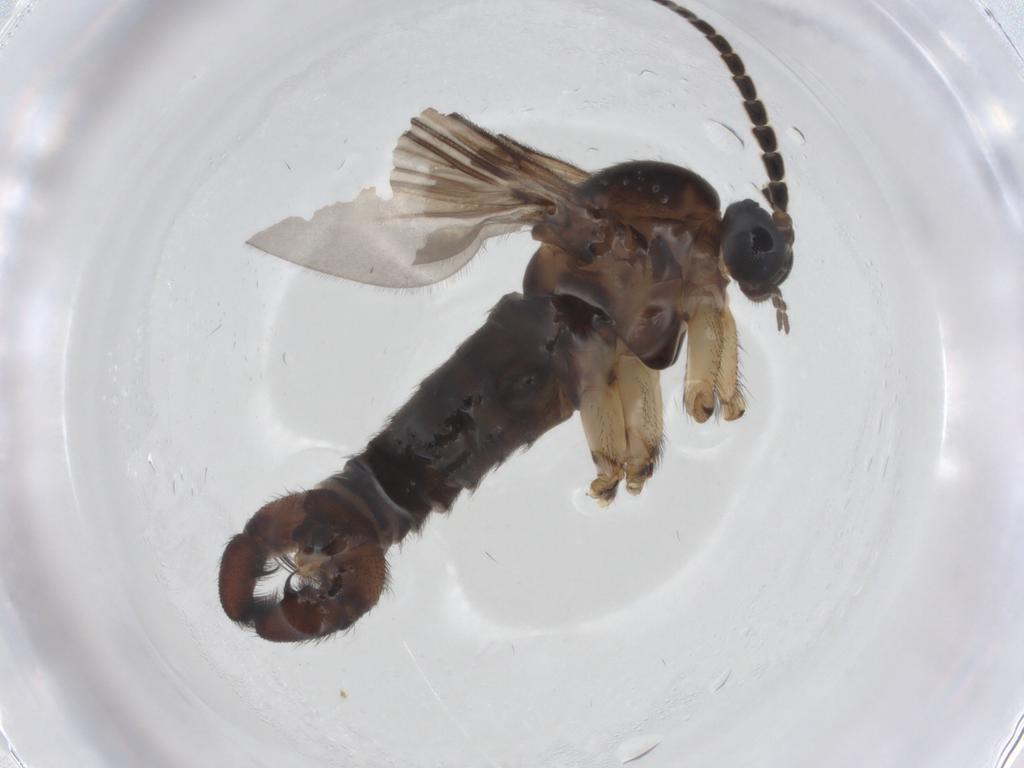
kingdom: Animalia
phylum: Arthropoda
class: Insecta
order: Diptera
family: Sciaridae
